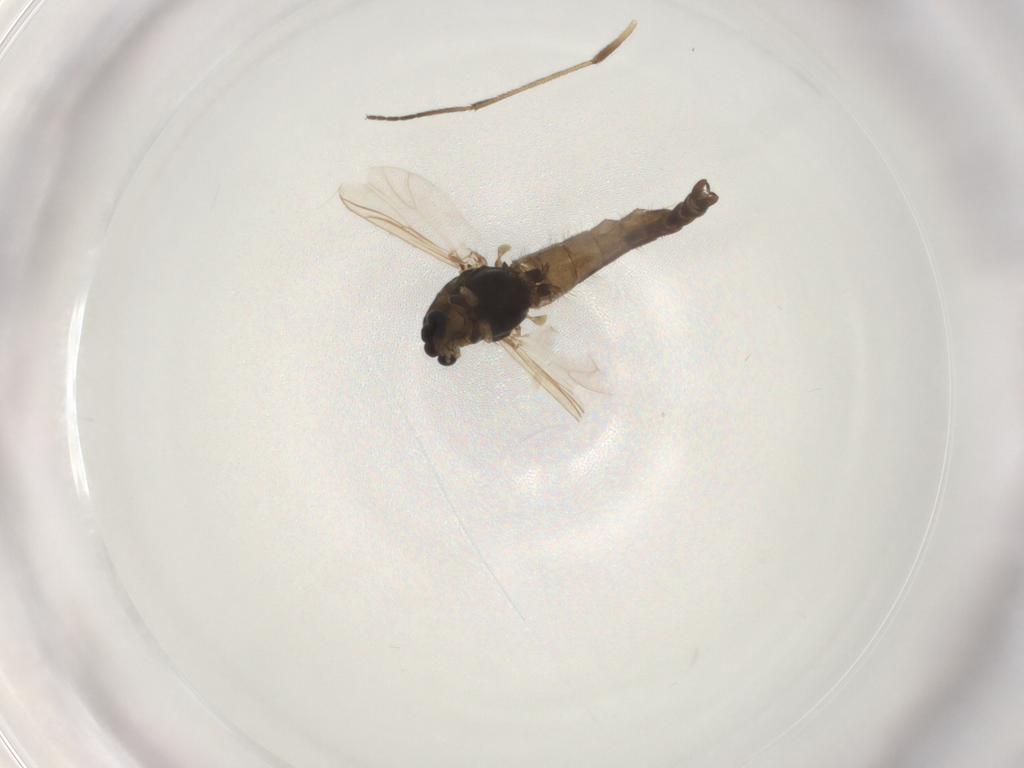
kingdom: Animalia
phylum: Arthropoda
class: Insecta
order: Diptera
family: Chironomidae
